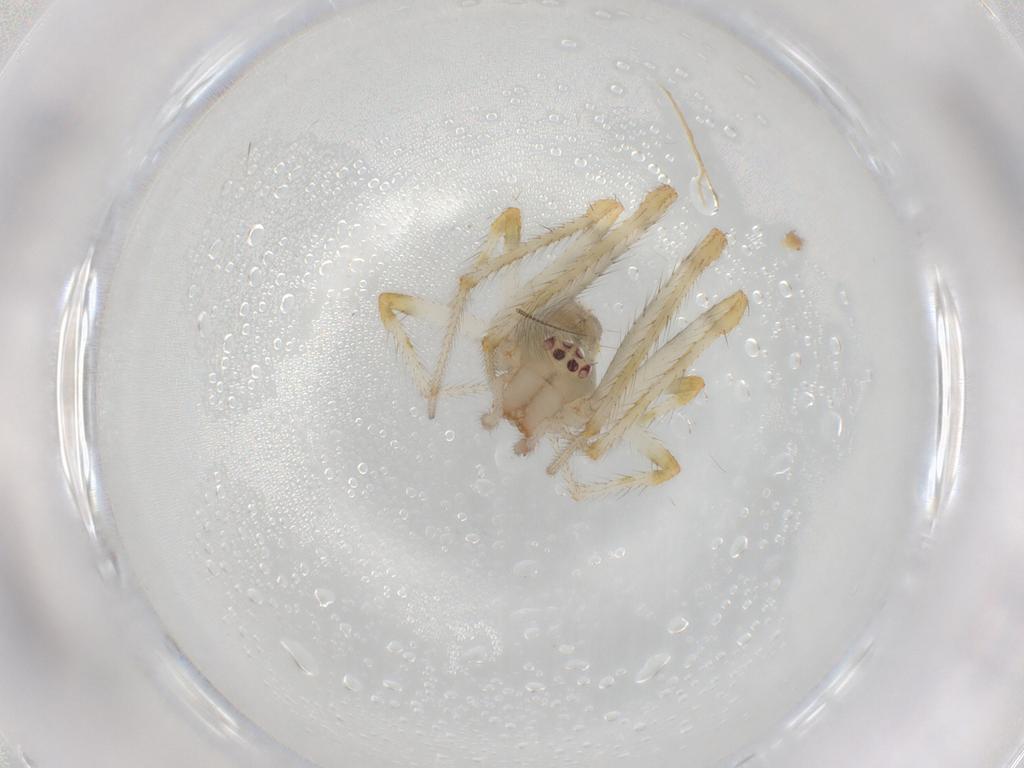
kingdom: Animalia
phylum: Arthropoda
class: Arachnida
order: Araneae
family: Theridiidae
